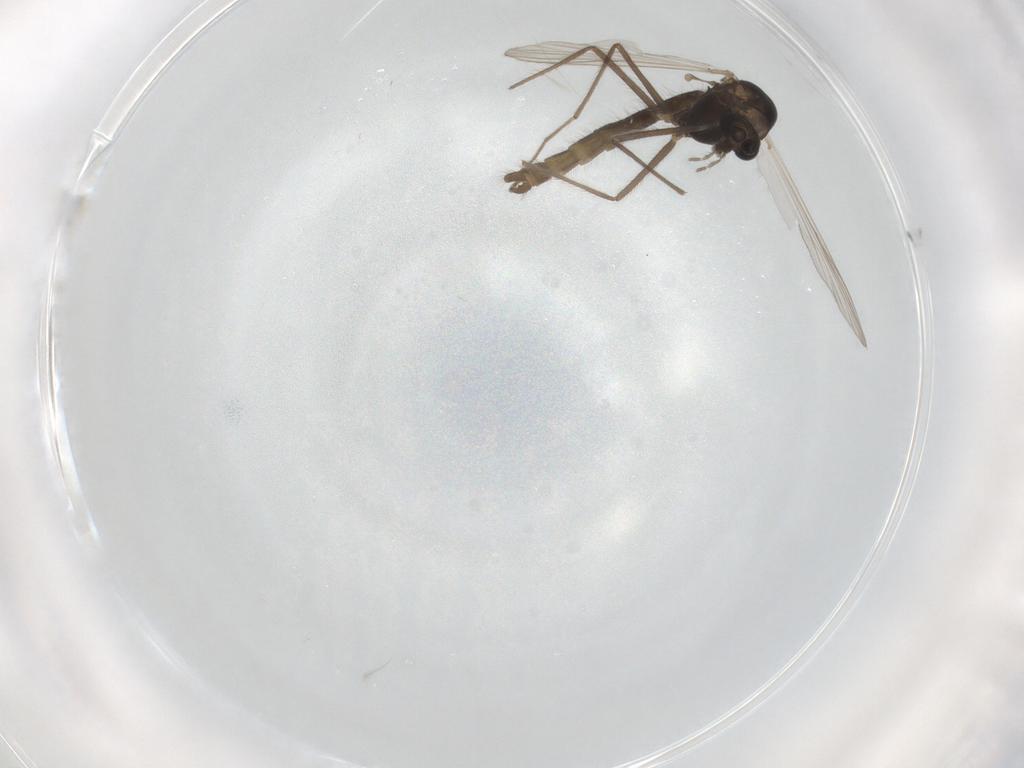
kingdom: Animalia
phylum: Arthropoda
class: Insecta
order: Diptera
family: Chironomidae
